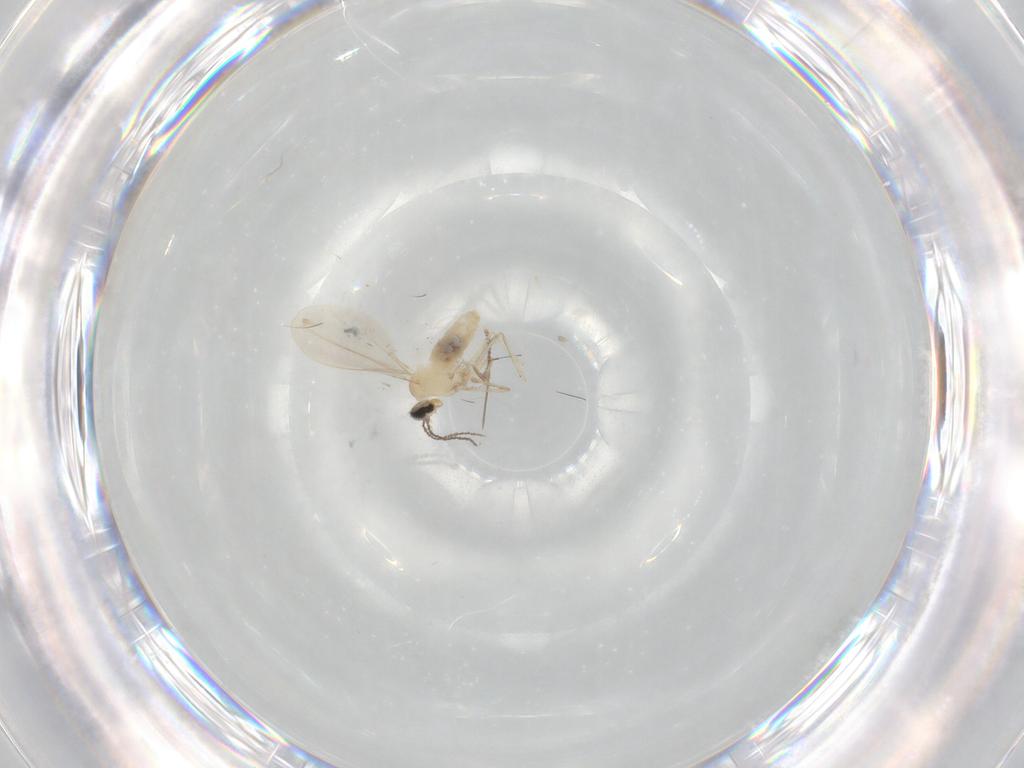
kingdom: Animalia
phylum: Arthropoda
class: Insecta
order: Diptera
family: Cecidomyiidae
